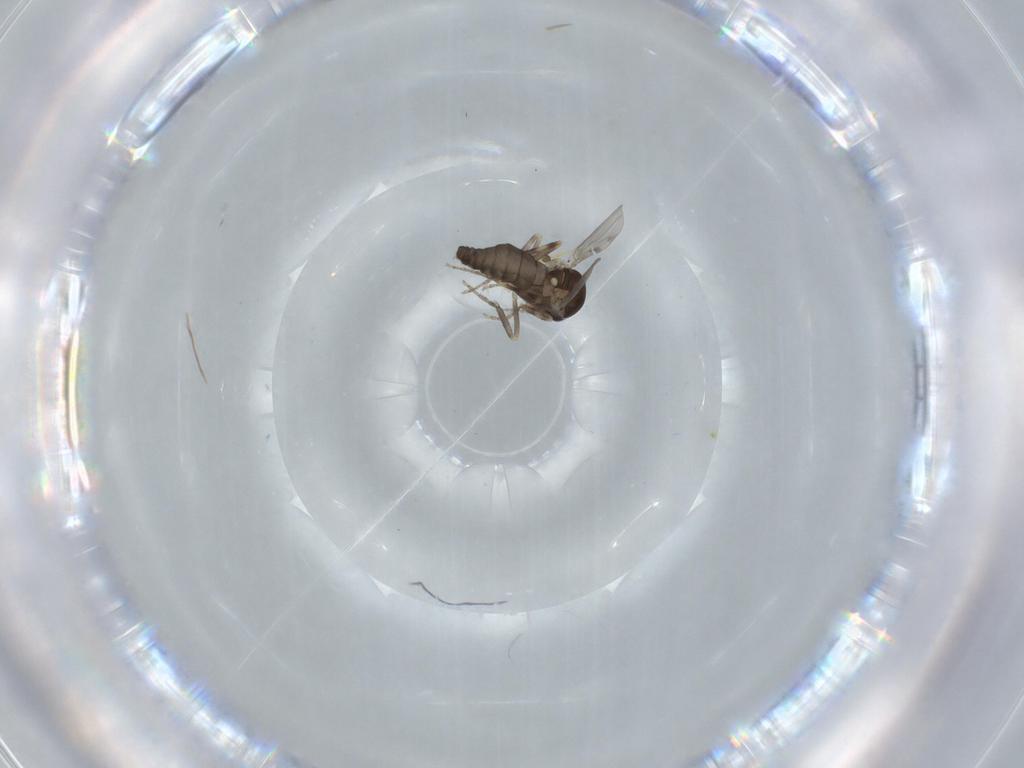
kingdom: Animalia
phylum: Arthropoda
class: Insecta
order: Diptera
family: Ceratopogonidae
